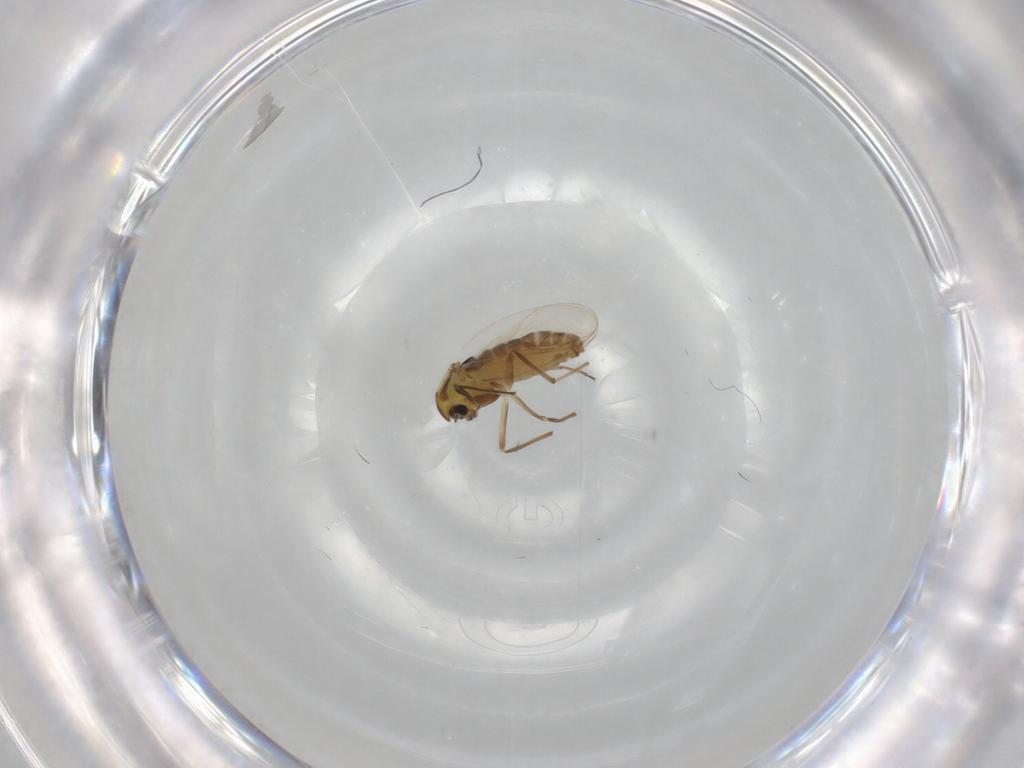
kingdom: Animalia
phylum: Arthropoda
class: Insecta
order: Diptera
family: Chironomidae
